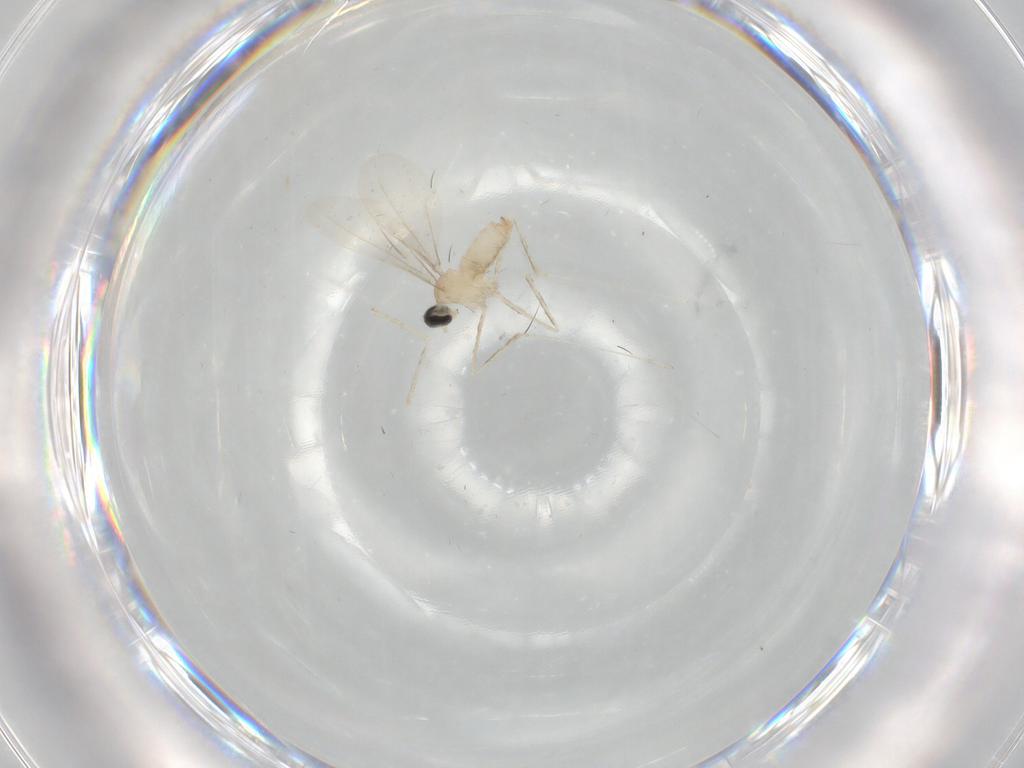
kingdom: Animalia
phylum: Arthropoda
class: Insecta
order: Diptera
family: Cecidomyiidae
